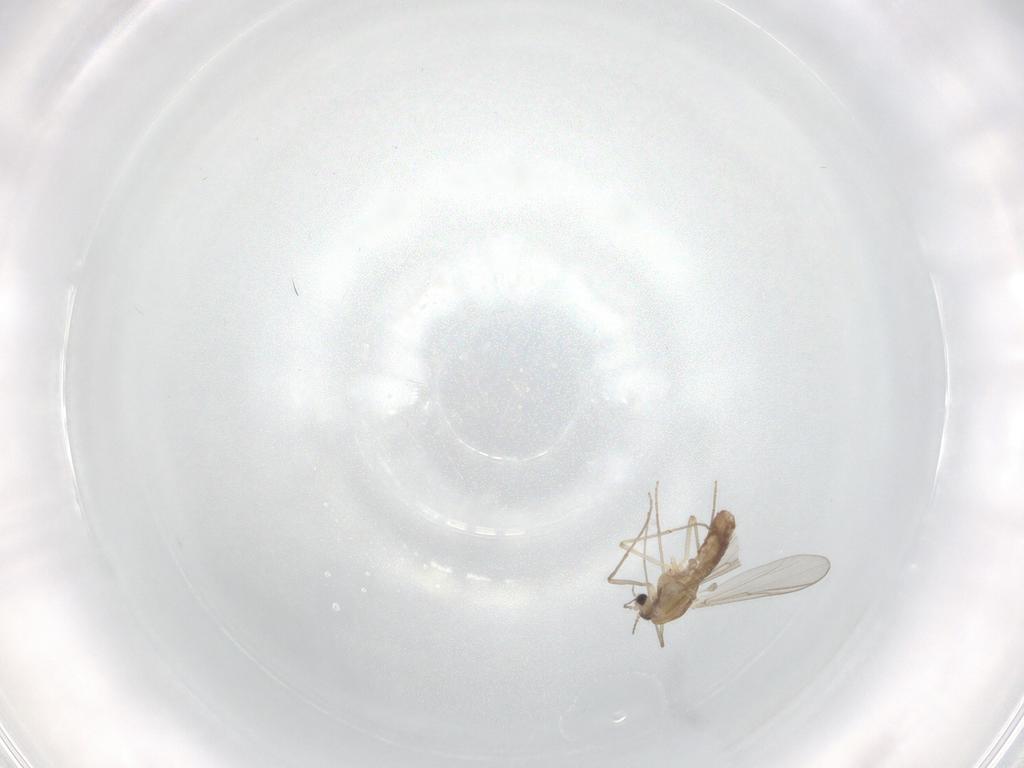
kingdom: Animalia
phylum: Arthropoda
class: Insecta
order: Diptera
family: Phoridae
